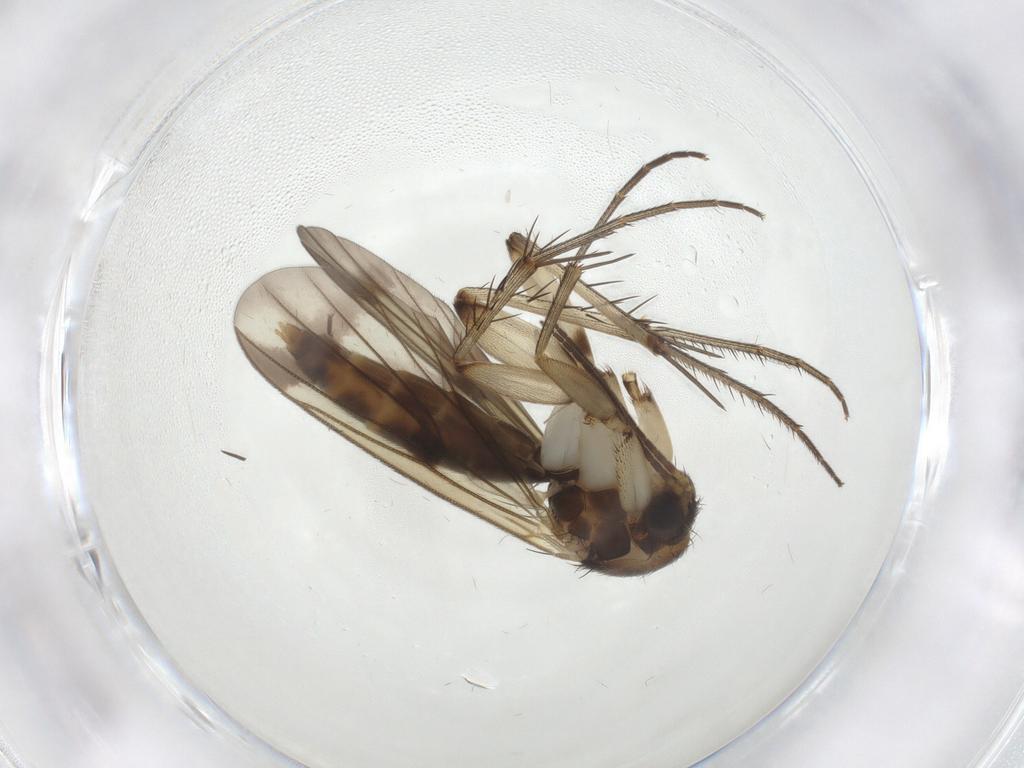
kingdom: Animalia
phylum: Arthropoda
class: Insecta
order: Diptera
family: Mycetophilidae
